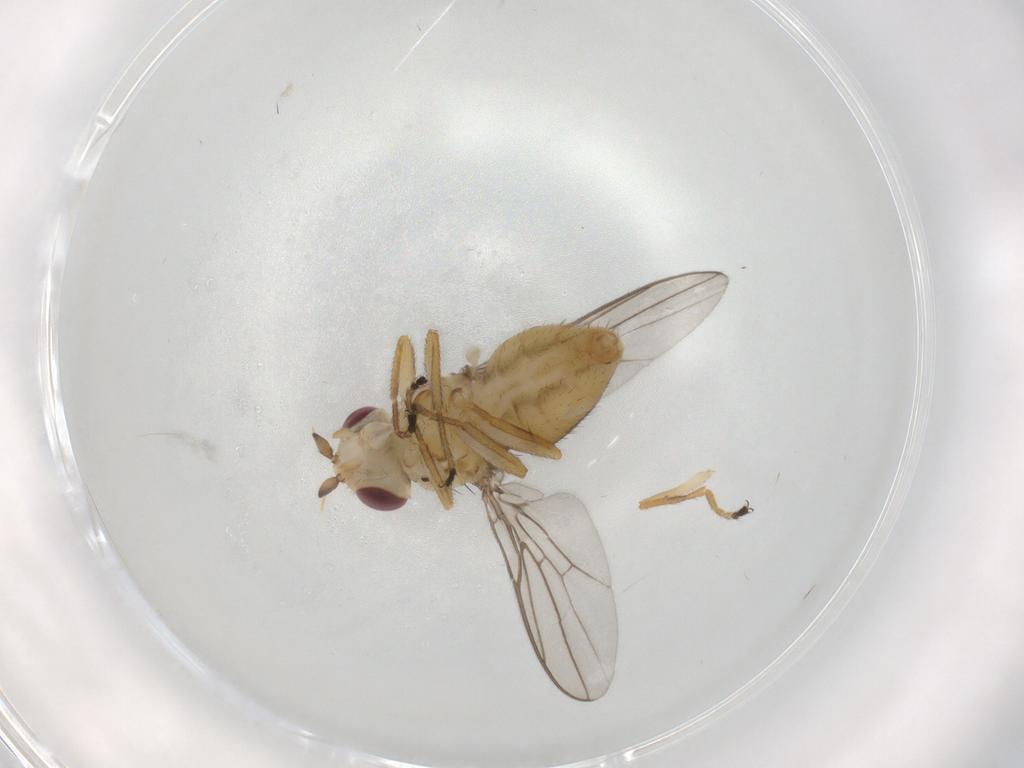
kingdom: Animalia
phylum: Arthropoda
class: Insecta
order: Diptera
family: Chloropidae
